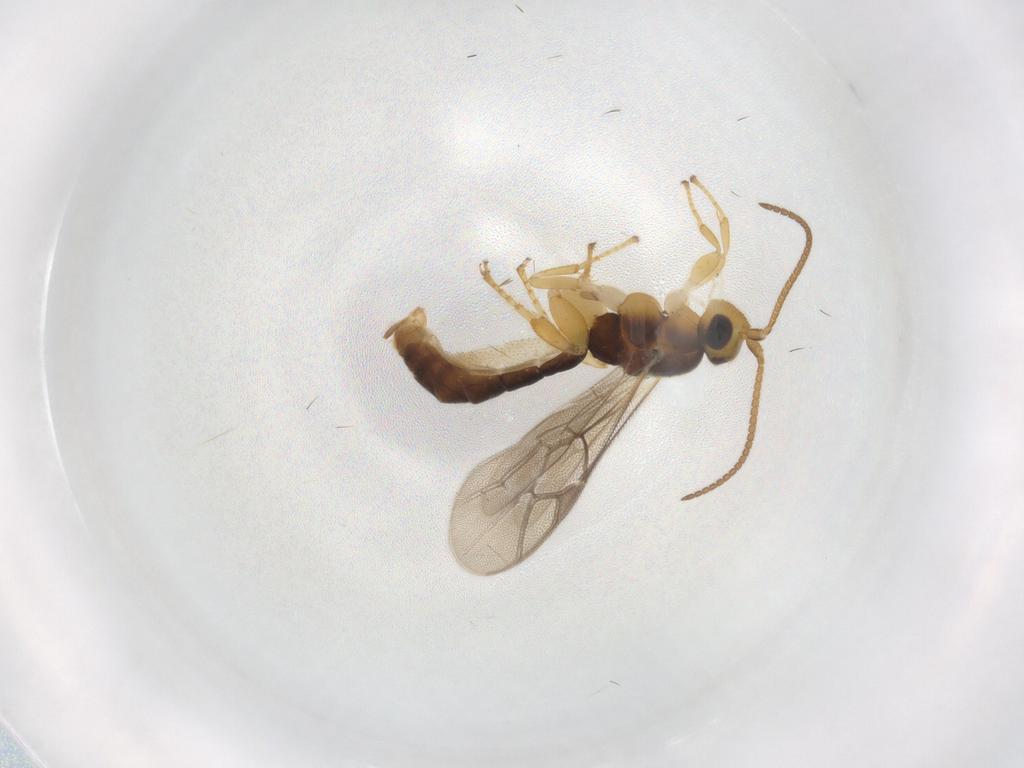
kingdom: Animalia
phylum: Arthropoda
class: Insecta
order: Hymenoptera
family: Ichneumonidae
